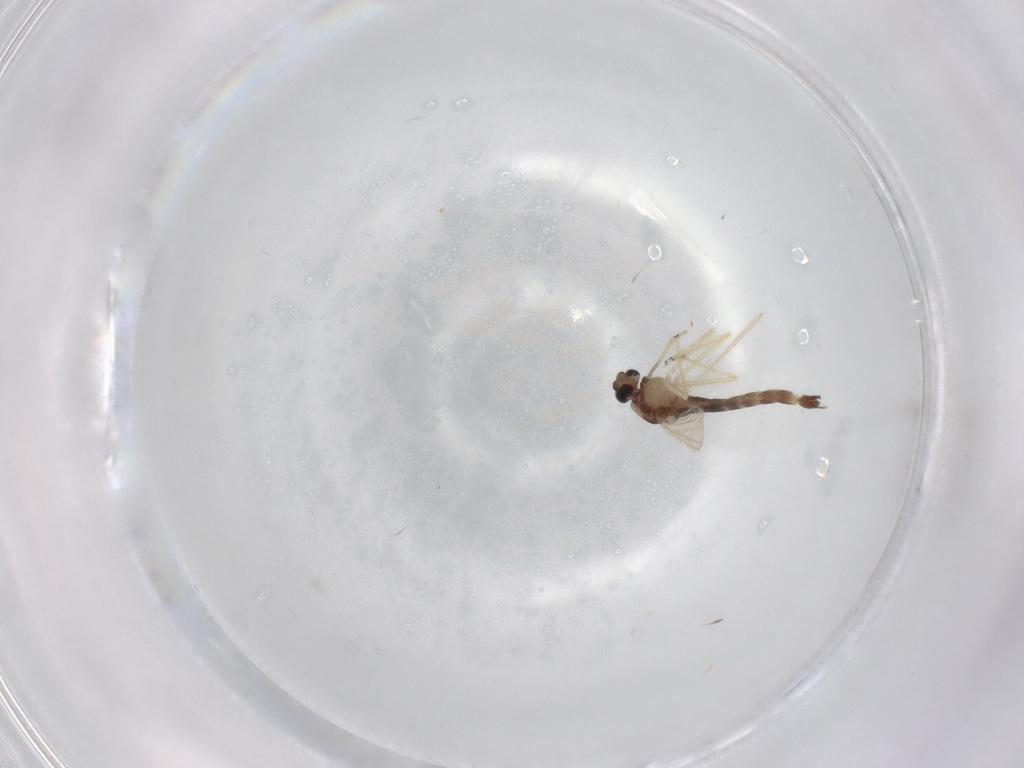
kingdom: Animalia
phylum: Arthropoda
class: Insecta
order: Diptera
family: Chironomidae
